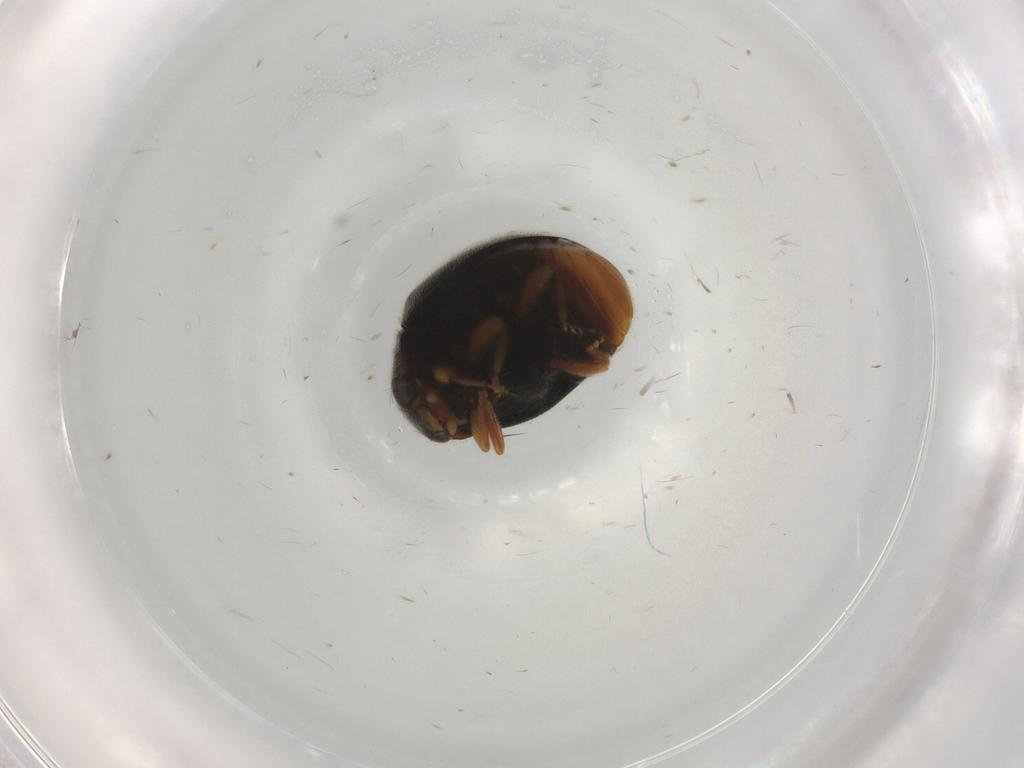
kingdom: Animalia
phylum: Arthropoda
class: Insecta
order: Coleoptera
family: Coccinellidae
